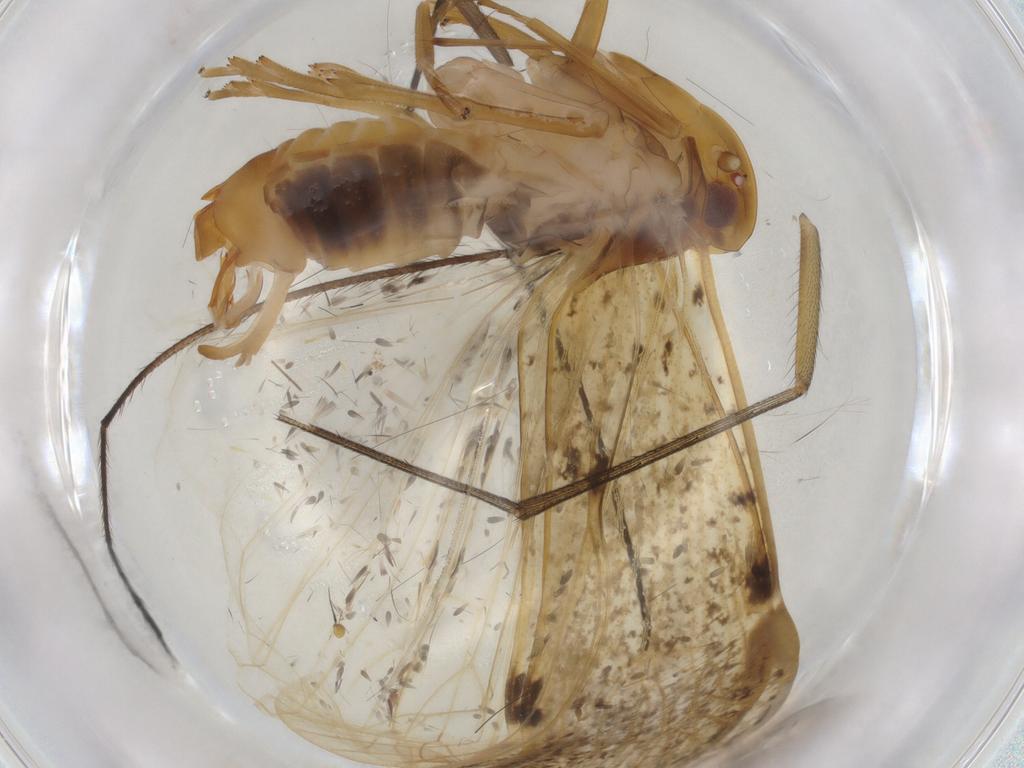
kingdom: Animalia
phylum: Arthropoda
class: Insecta
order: Hemiptera
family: Cixiidae
